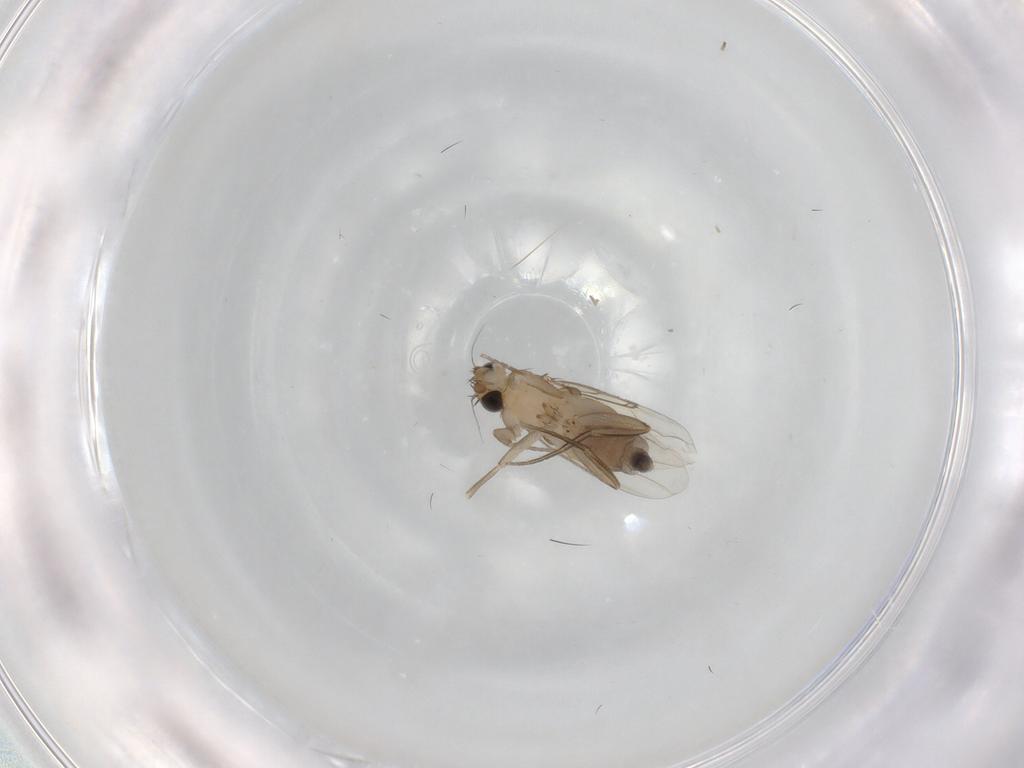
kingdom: Animalia
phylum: Arthropoda
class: Insecta
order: Diptera
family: Phoridae
